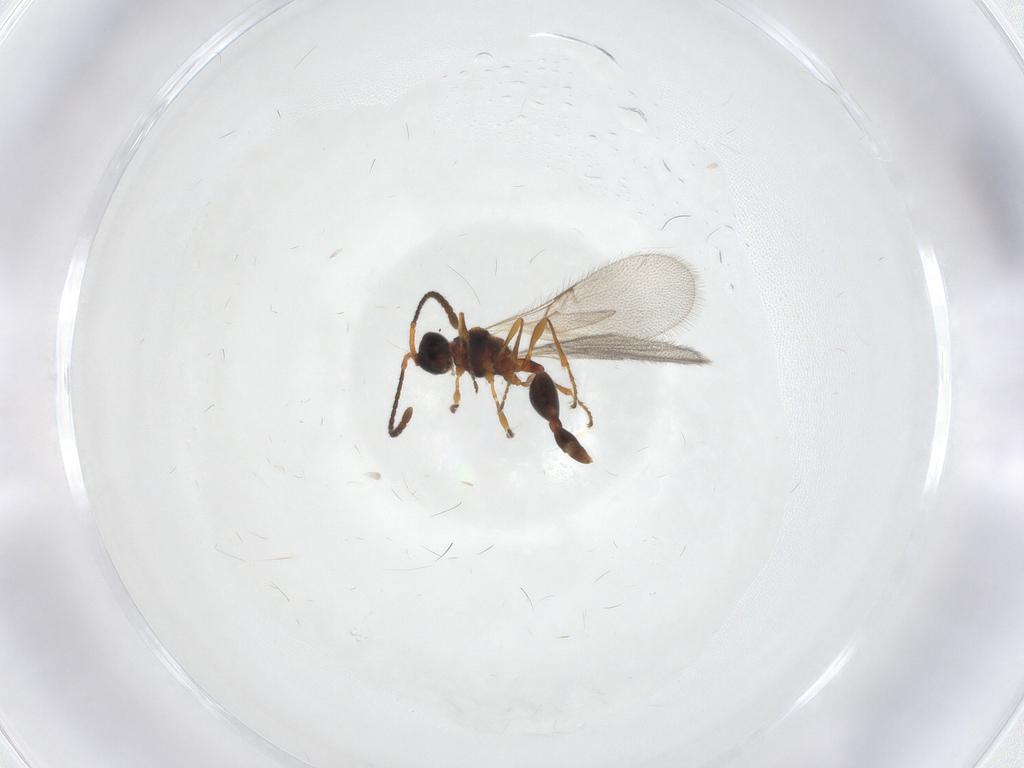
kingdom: Animalia
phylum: Arthropoda
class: Insecta
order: Hymenoptera
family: Diapriidae
